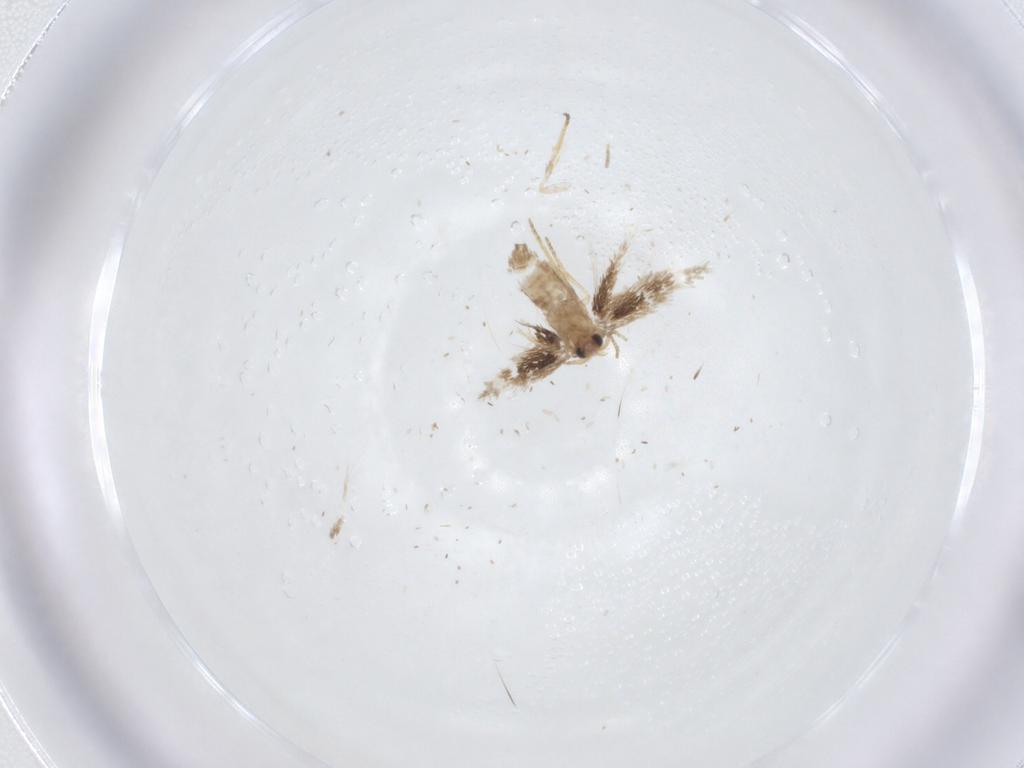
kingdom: Animalia
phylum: Arthropoda
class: Insecta
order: Lepidoptera
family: Nepticulidae
